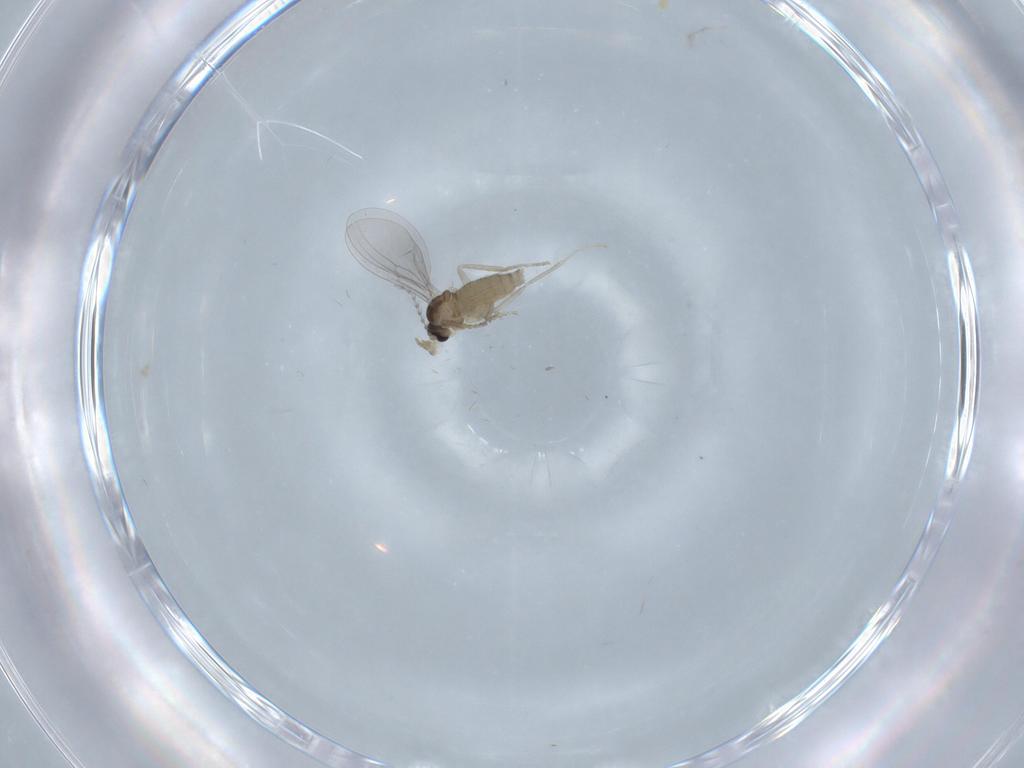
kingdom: Animalia
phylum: Arthropoda
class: Insecta
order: Diptera
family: Cecidomyiidae
